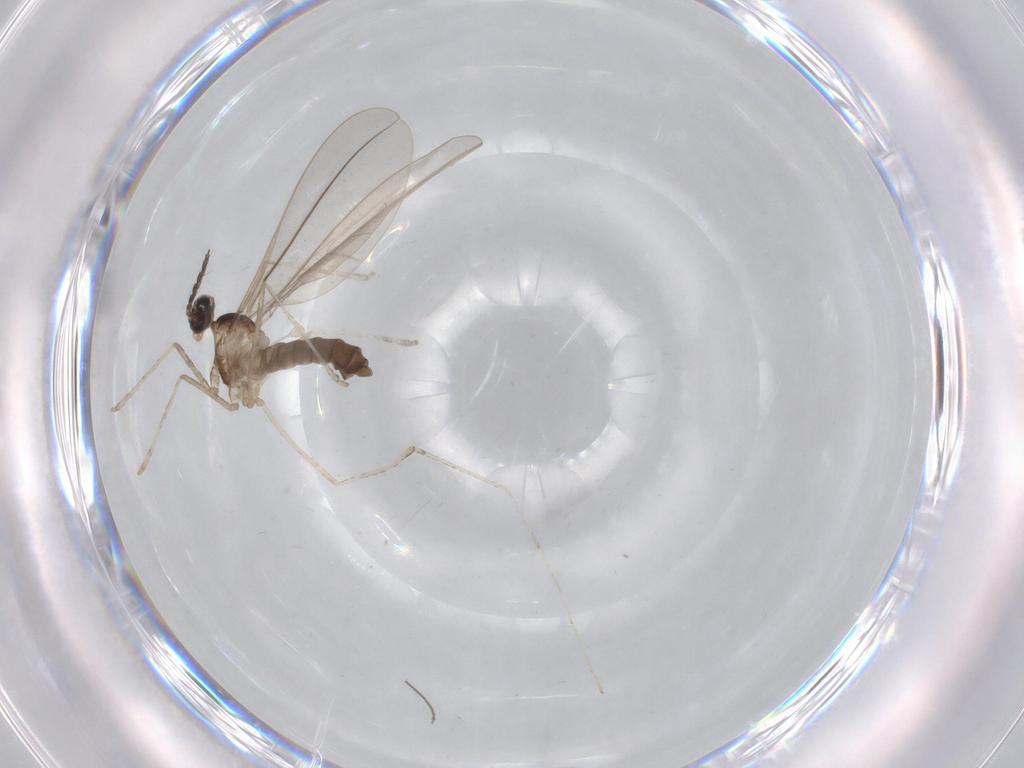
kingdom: Animalia
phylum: Arthropoda
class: Insecta
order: Diptera
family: Chironomidae
